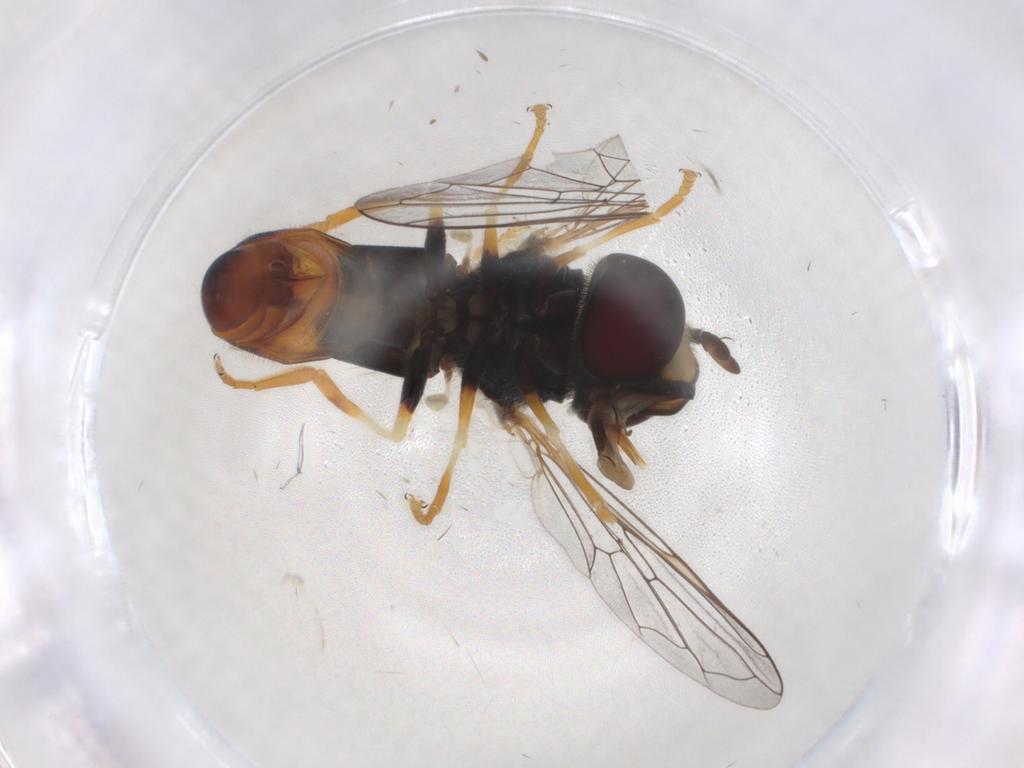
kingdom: Animalia
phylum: Arthropoda
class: Insecta
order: Diptera
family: Syrphidae
